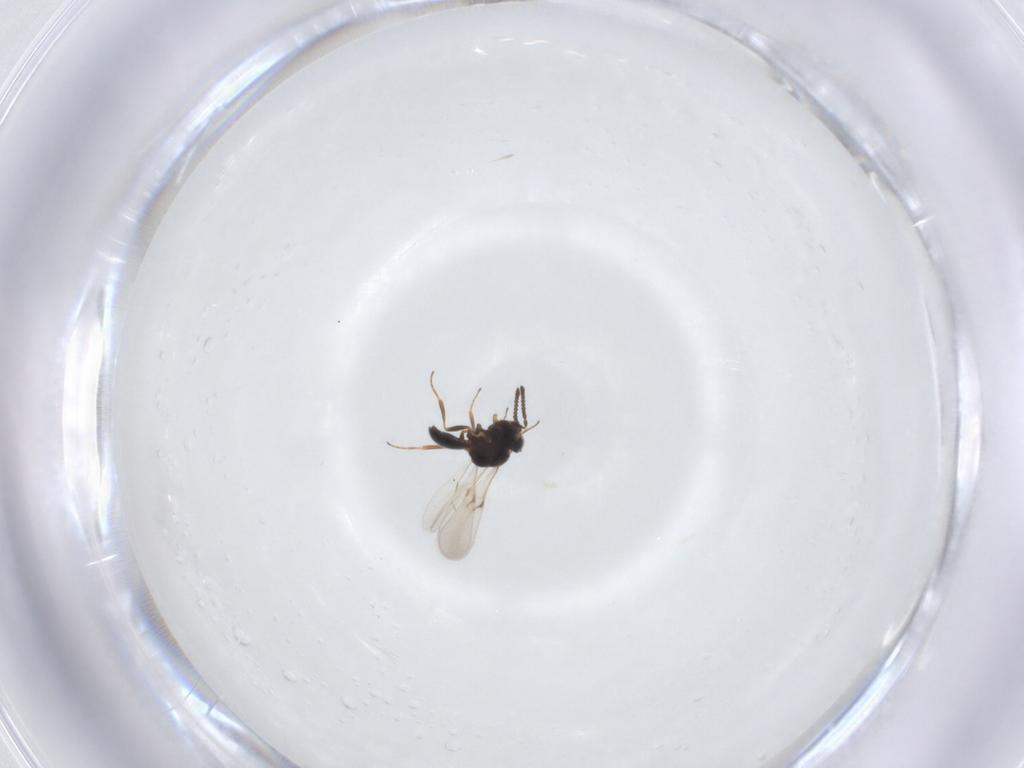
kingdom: Animalia
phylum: Arthropoda
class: Arachnida
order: Araneae
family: Pholcidae
